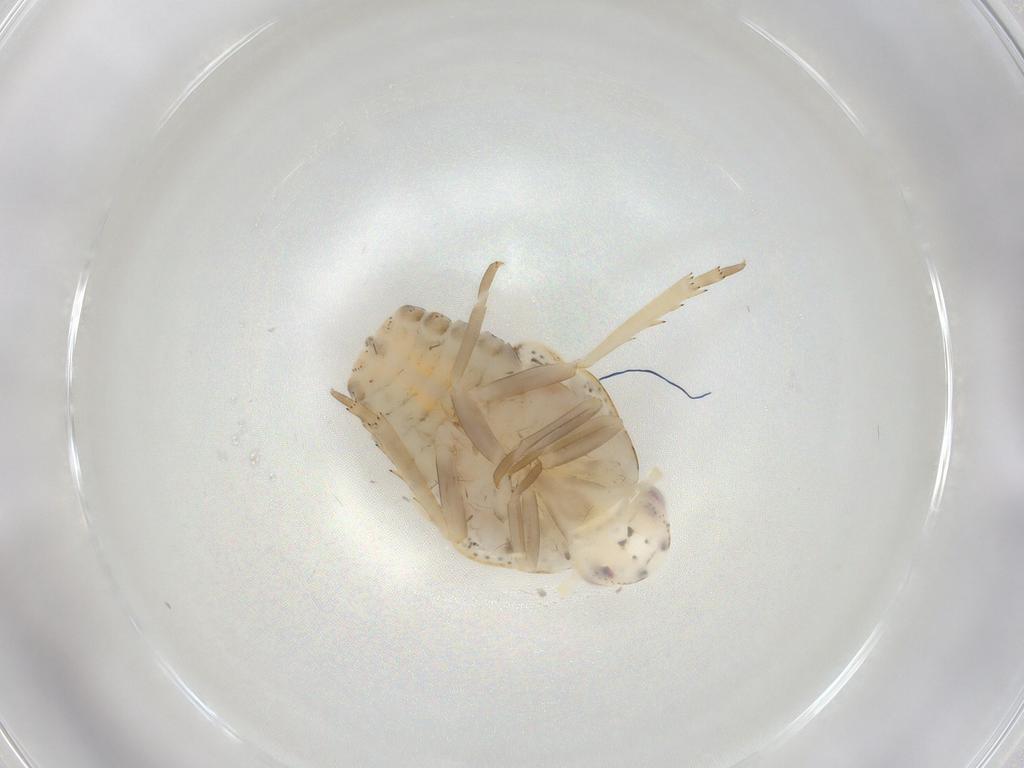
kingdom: Animalia
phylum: Arthropoda
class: Insecta
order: Hemiptera
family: Flatidae
